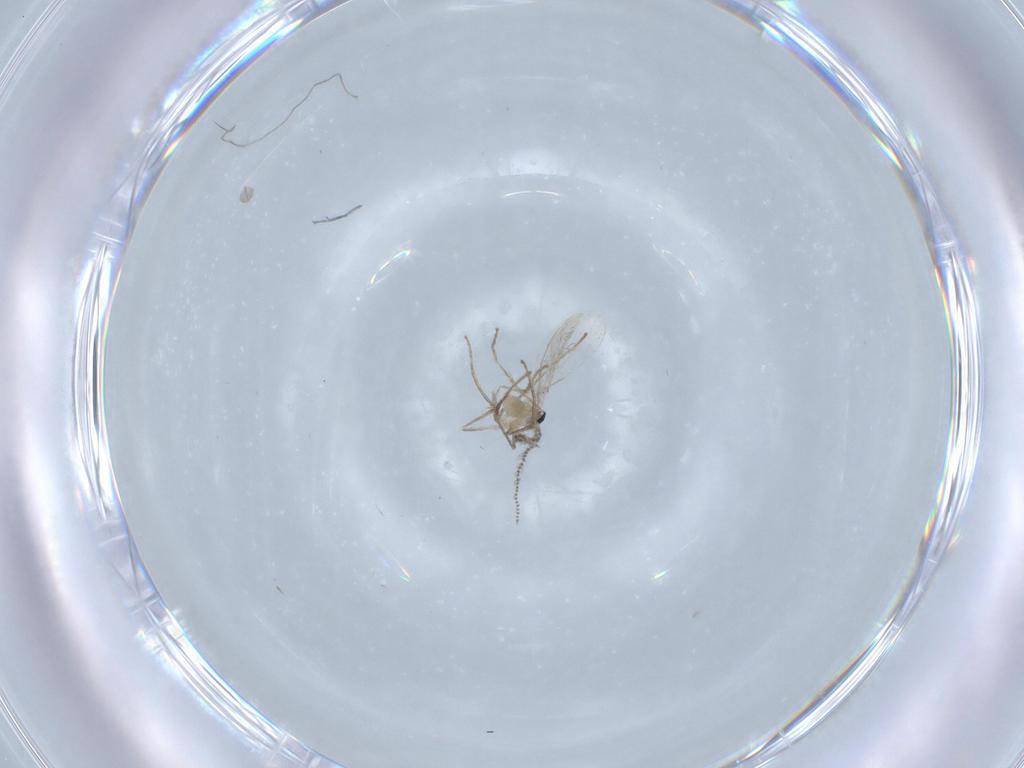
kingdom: Animalia
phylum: Arthropoda
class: Insecta
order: Diptera
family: Cecidomyiidae
